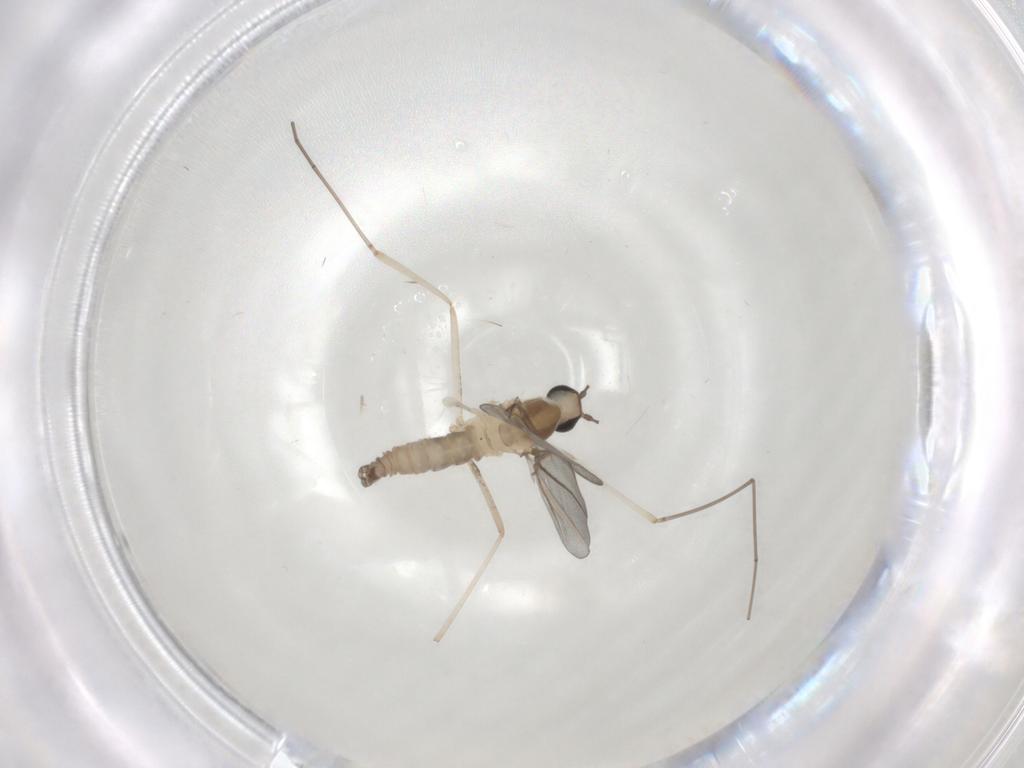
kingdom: Animalia
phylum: Arthropoda
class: Insecta
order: Diptera
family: Cecidomyiidae
